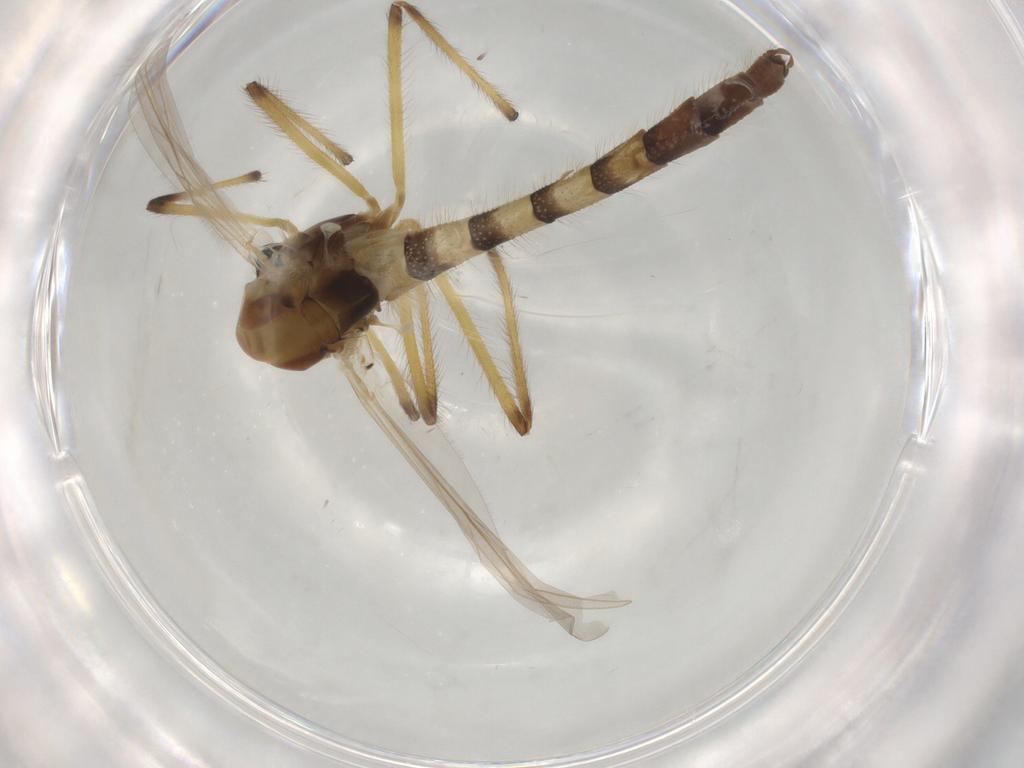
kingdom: Animalia
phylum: Arthropoda
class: Insecta
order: Diptera
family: Chironomidae
